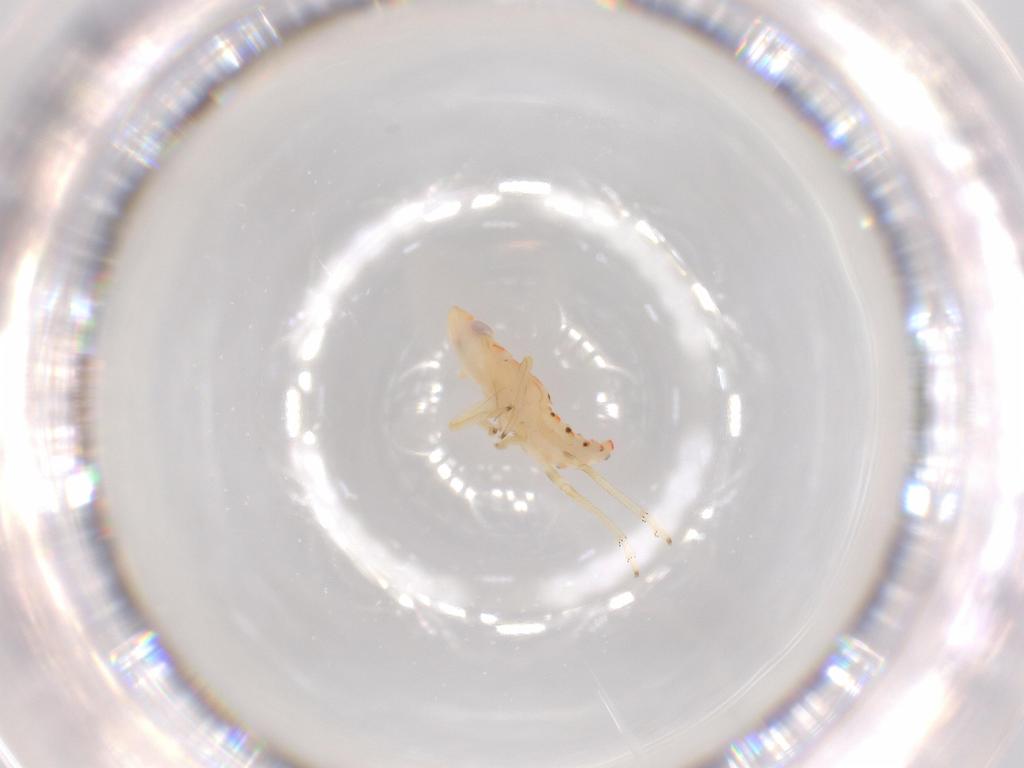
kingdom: Animalia
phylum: Arthropoda
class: Insecta
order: Hemiptera
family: Tropiduchidae
